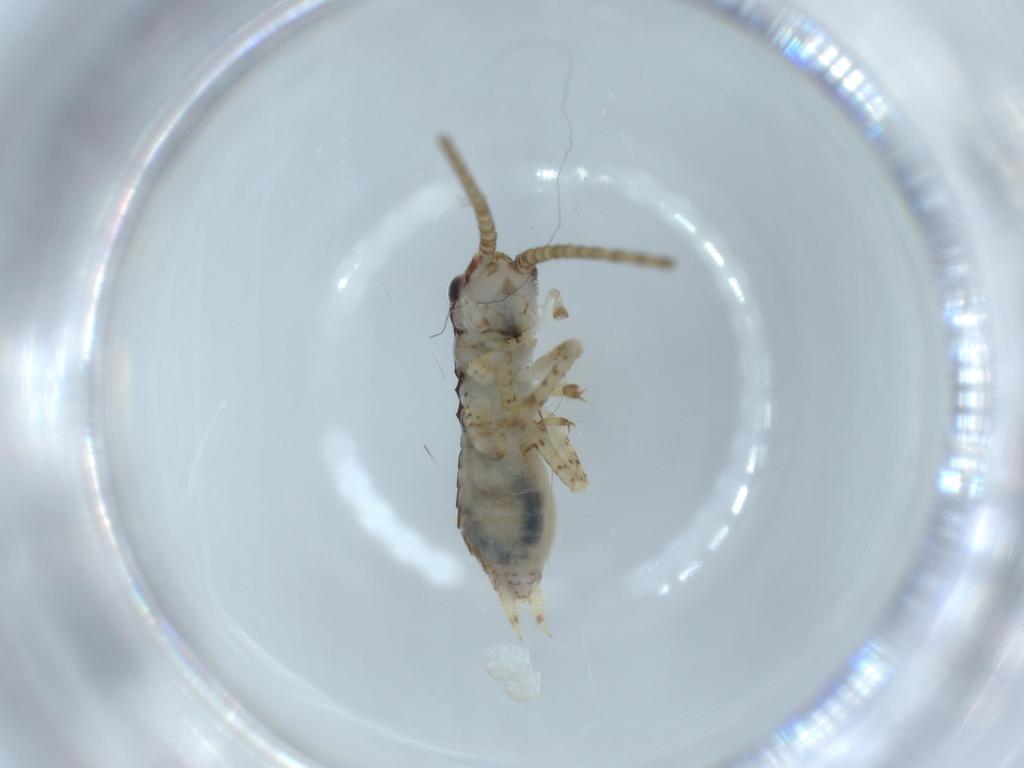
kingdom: Animalia
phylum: Arthropoda
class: Insecta
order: Orthoptera
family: Gryllidae
